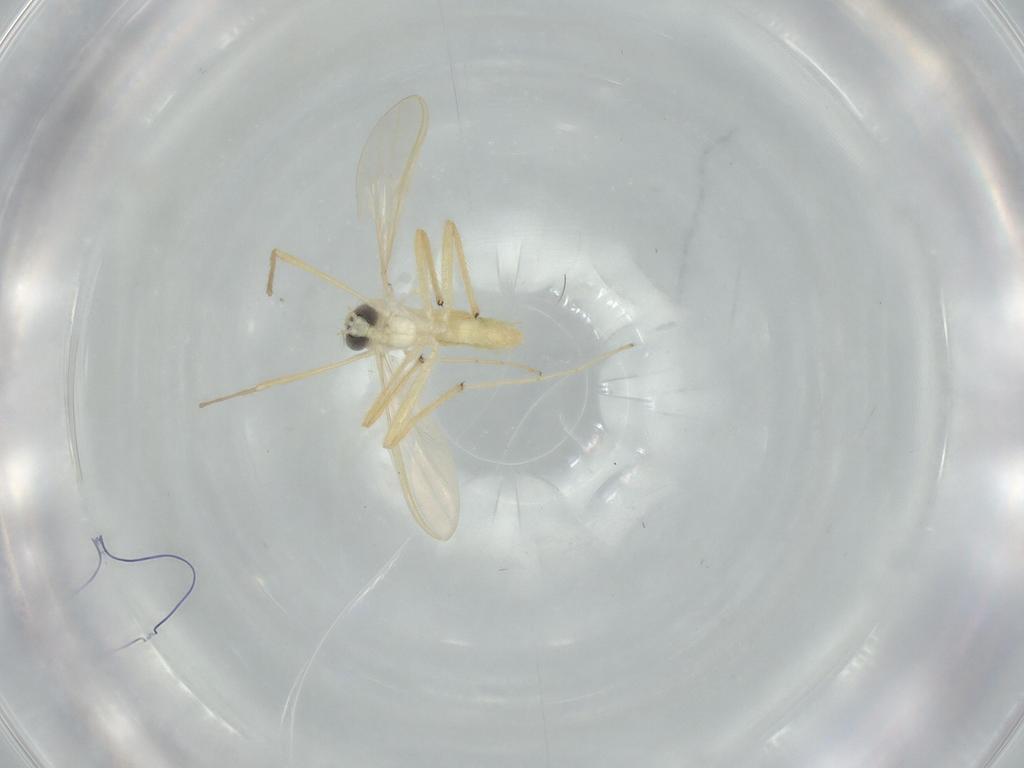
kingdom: Animalia
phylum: Arthropoda
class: Insecta
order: Diptera
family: Chironomidae
